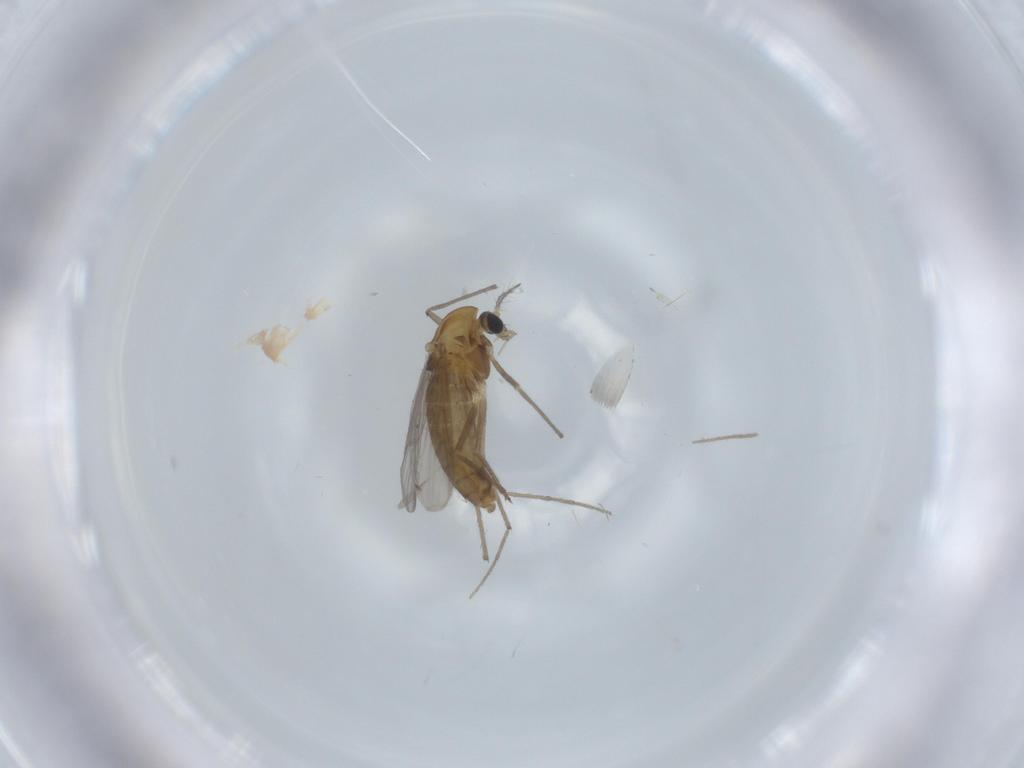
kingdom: Animalia
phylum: Arthropoda
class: Insecta
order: Diptera
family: Chironomidae
